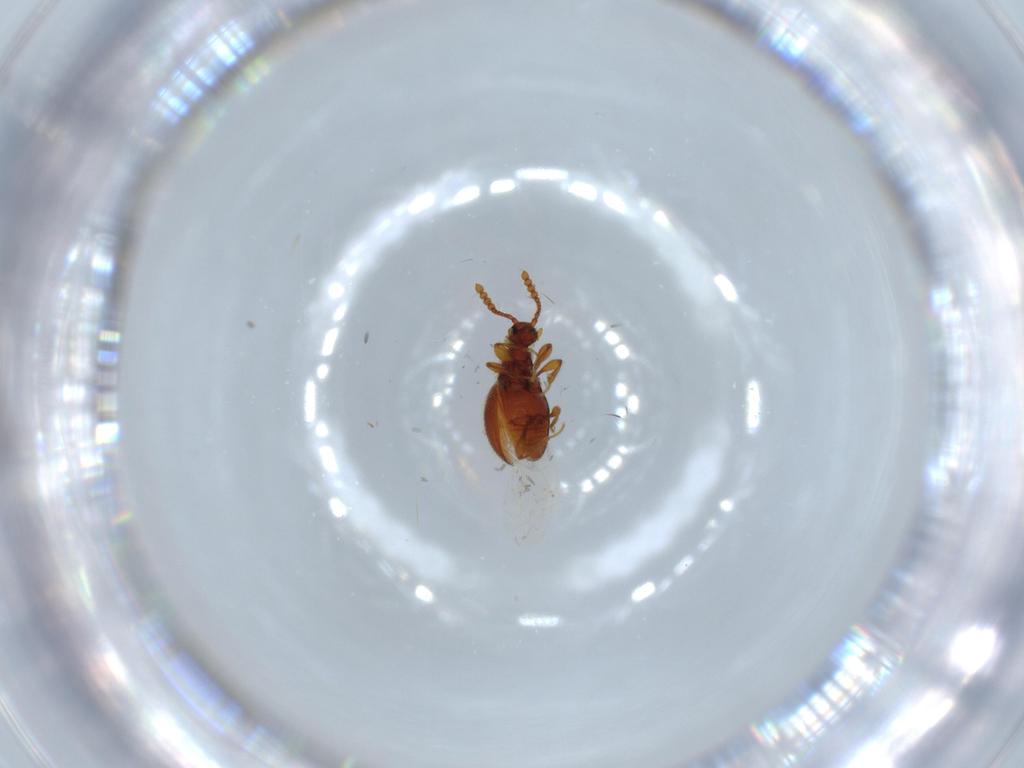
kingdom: Animalia
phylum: Arthropoda
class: Insecta
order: Coleoptera
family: Staphylinidae
